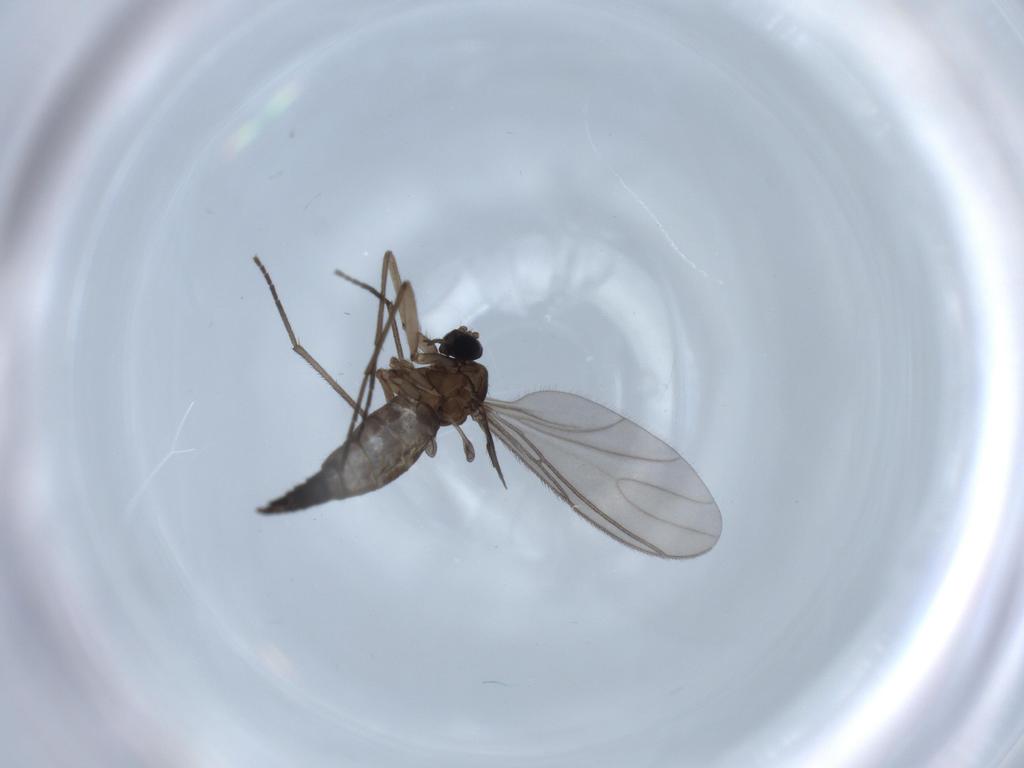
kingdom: Animalia
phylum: Arthropoda
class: Insecta
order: Diptera
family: Sciaridae
